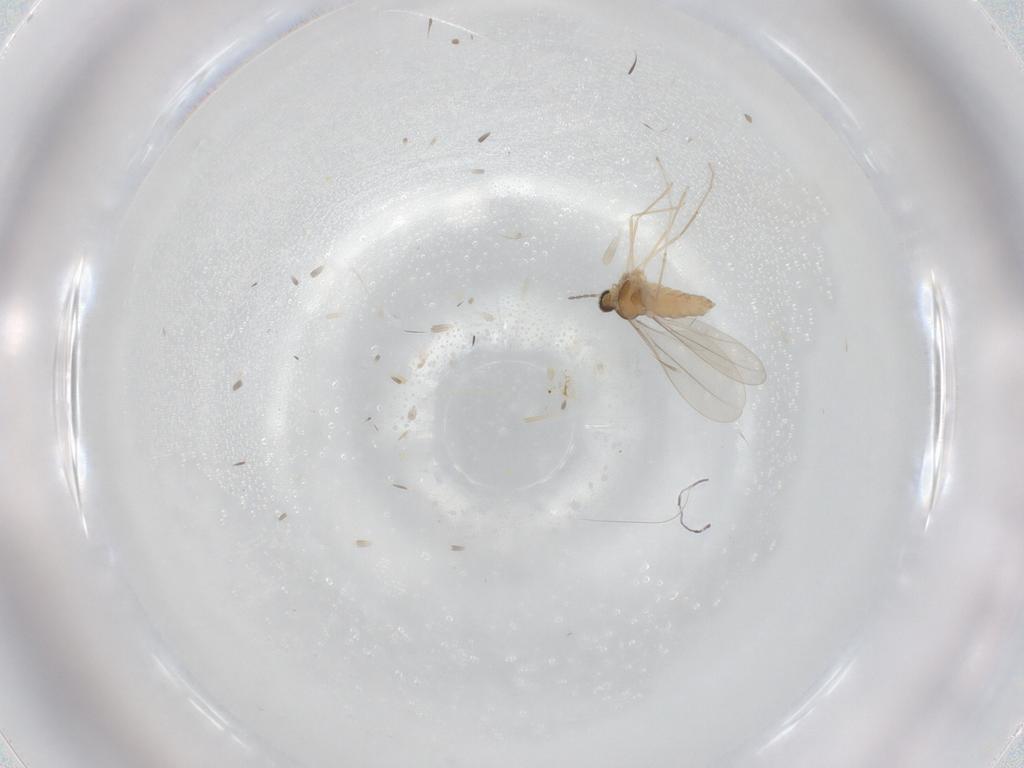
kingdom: Animalia
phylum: Arthropoda
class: Insecta
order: Diptera
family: Cecidomyiidae
